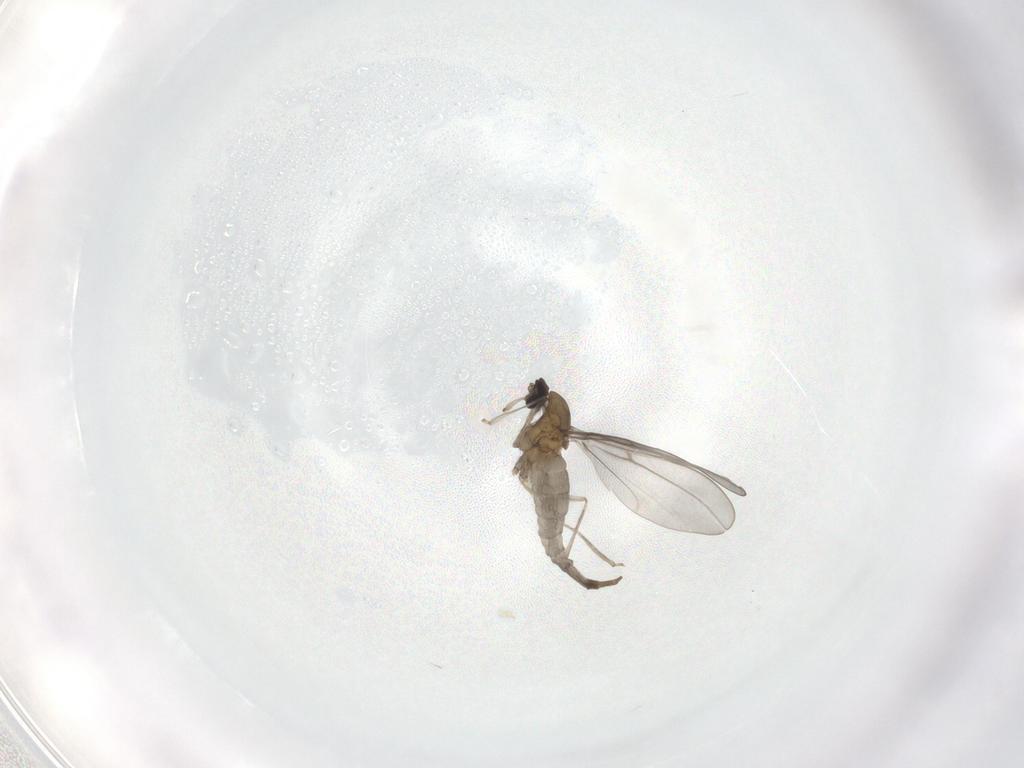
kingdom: Animalia
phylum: Arthropoda
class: Insecta
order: Diptera
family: Cecidomyiidae
